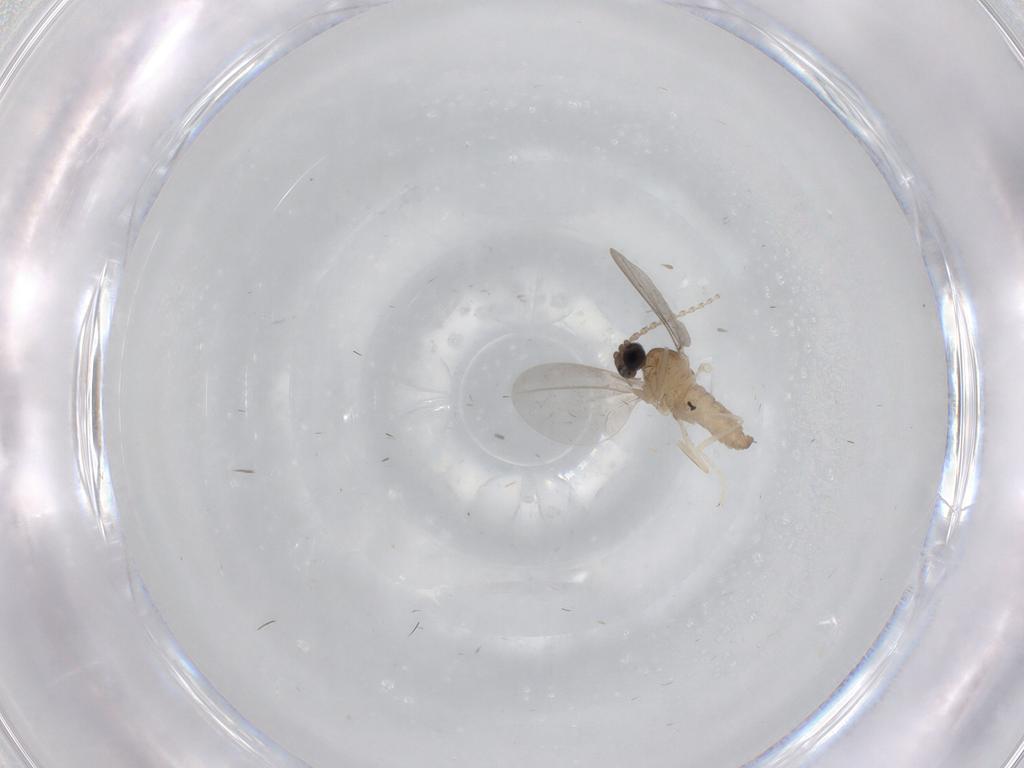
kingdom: Animalia
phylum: Arthropoda
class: Insecta
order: Diptera
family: Cecidomyiidae
